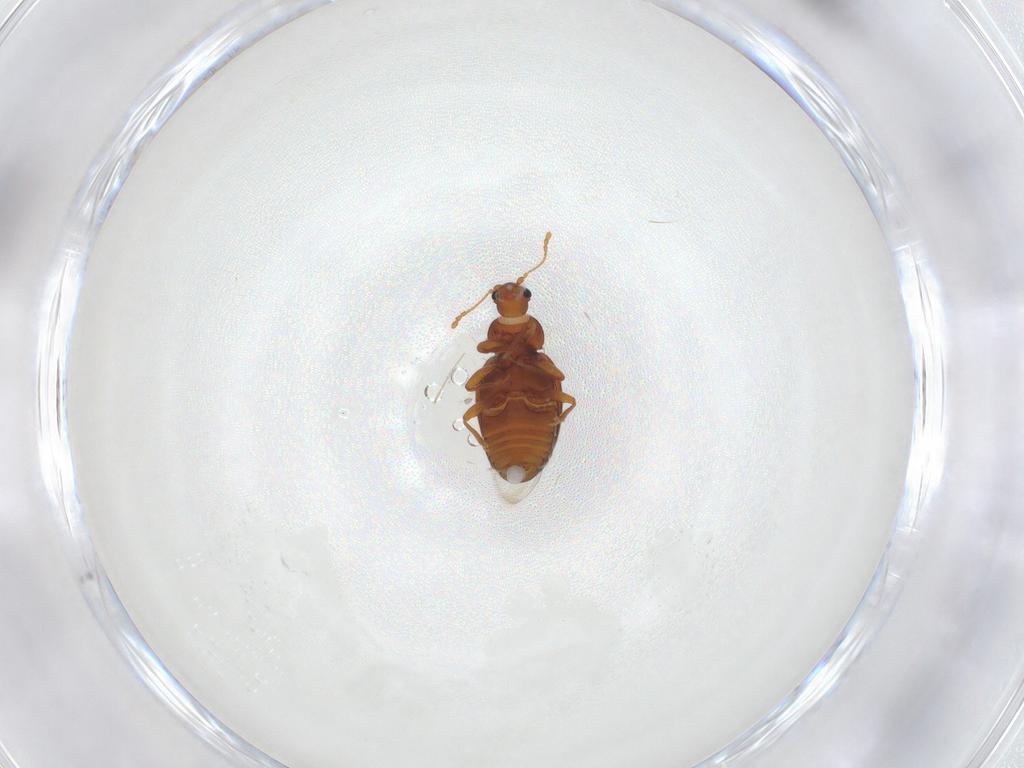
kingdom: Animalia
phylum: Arthropoda
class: Insecta
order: Coleoptera
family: Latridiidae
